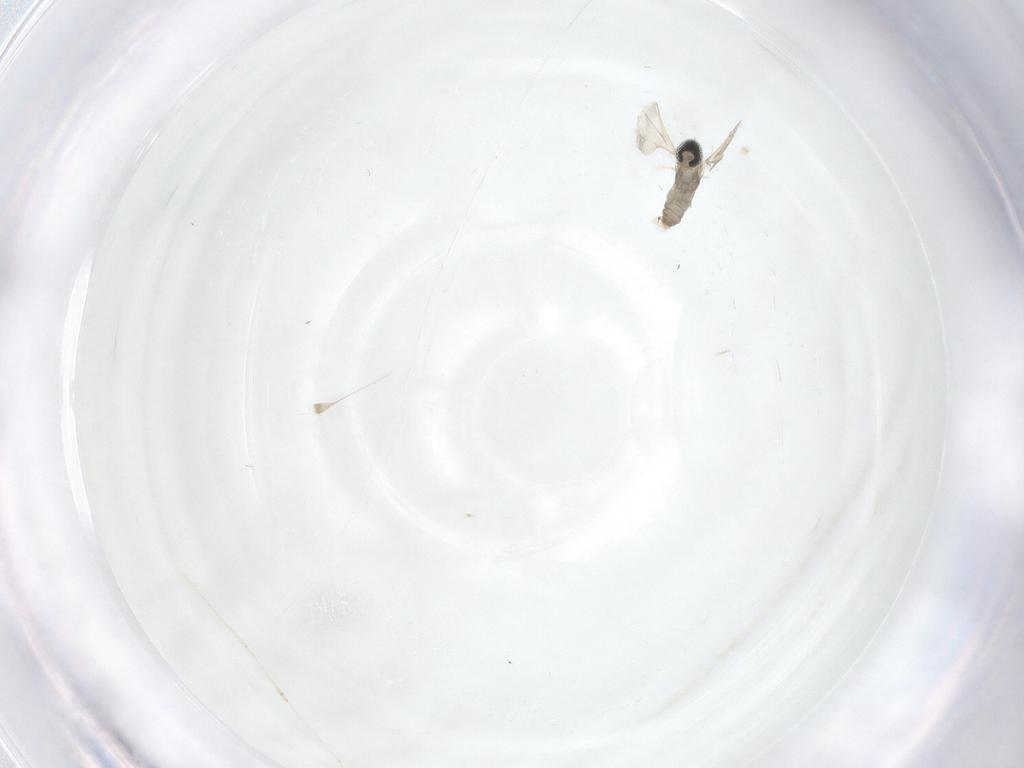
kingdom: Animalia
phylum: Arthropoda
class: Insecta
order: Diptera
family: Cecidomyiidae
